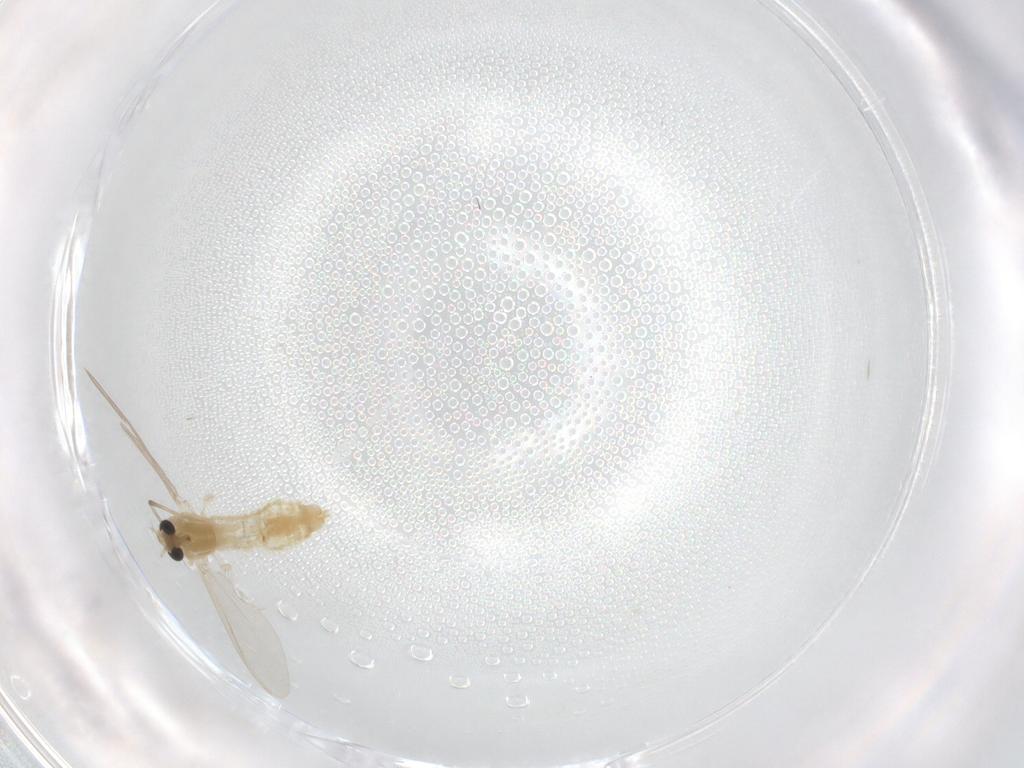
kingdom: Animalia
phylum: Arthropoda
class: Insecta
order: Diptera
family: Chironomidae
